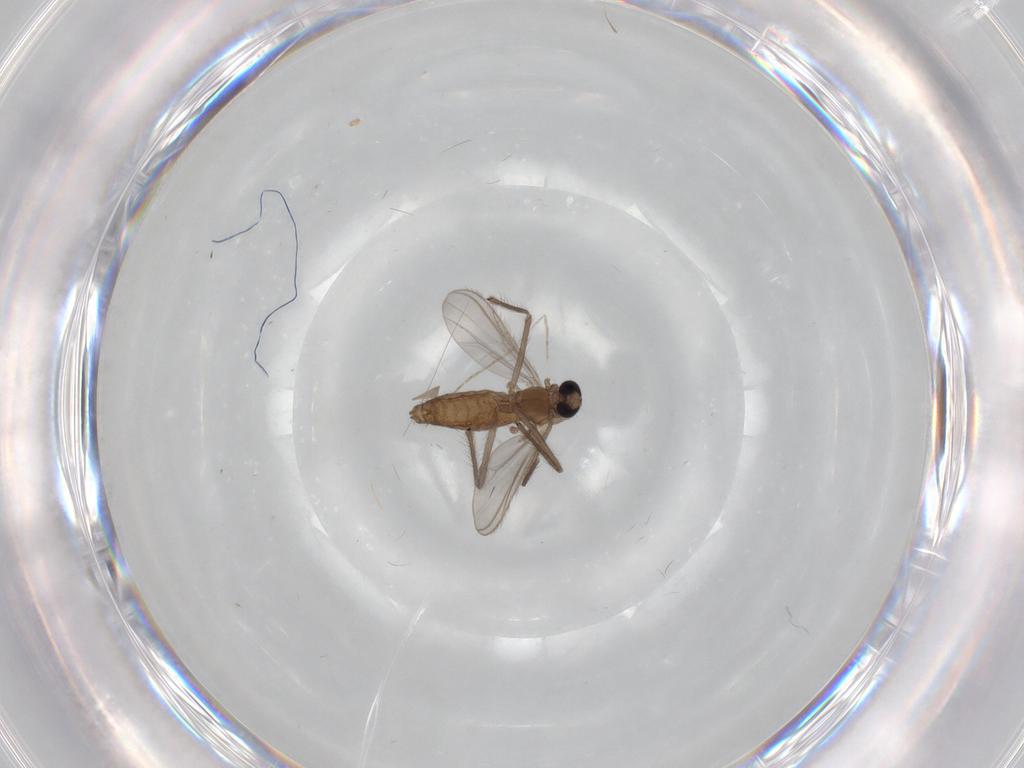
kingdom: Animalia
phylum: Arthropoda
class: Insecta
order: Diptera
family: Chironomidae
